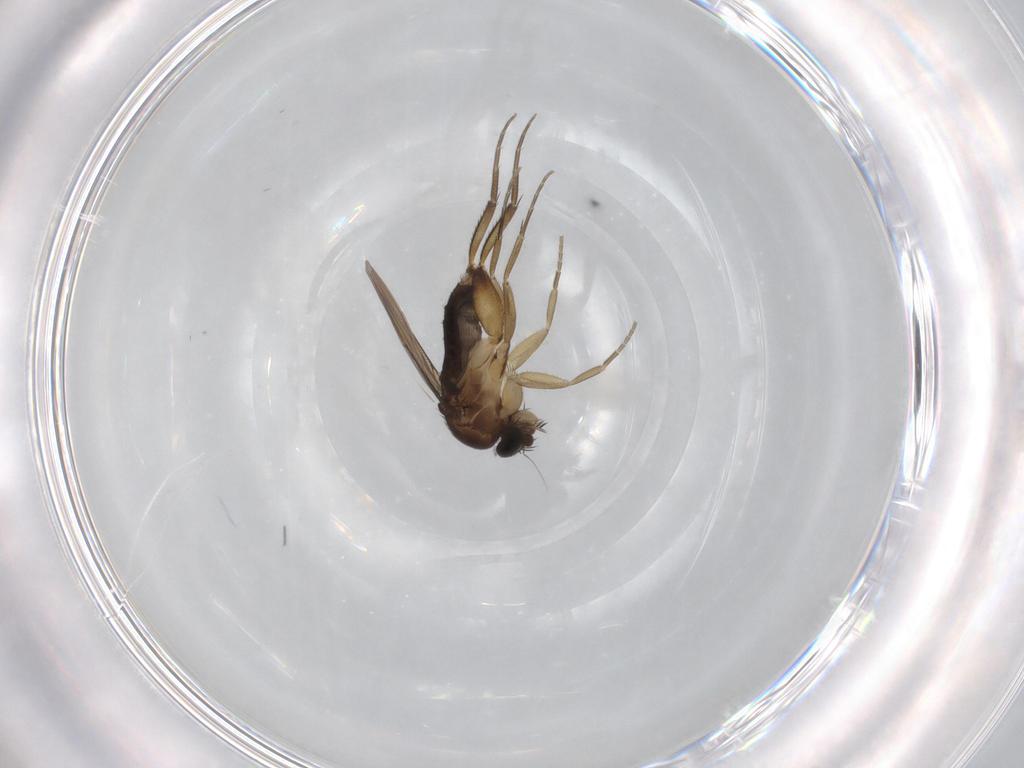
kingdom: Animalia
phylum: Arthropoda
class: Insecta
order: Diptera
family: Phoridae
